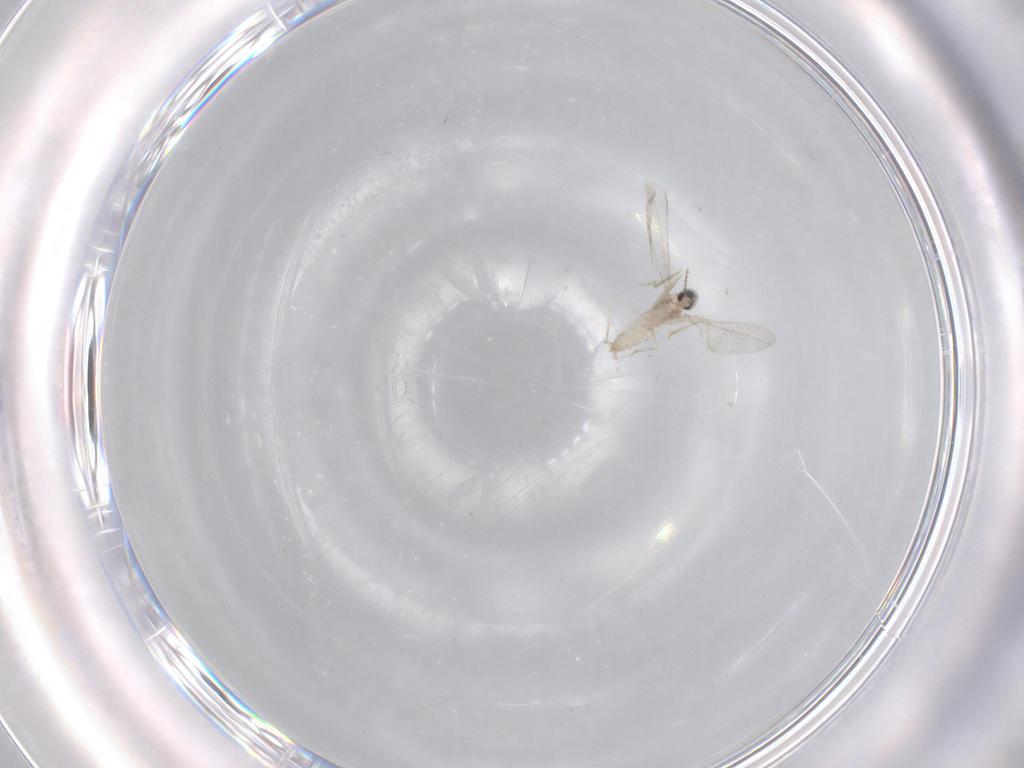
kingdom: Animalia
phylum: Arthropoda
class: Insecta
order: Diptera
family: Cecidomyiidae
